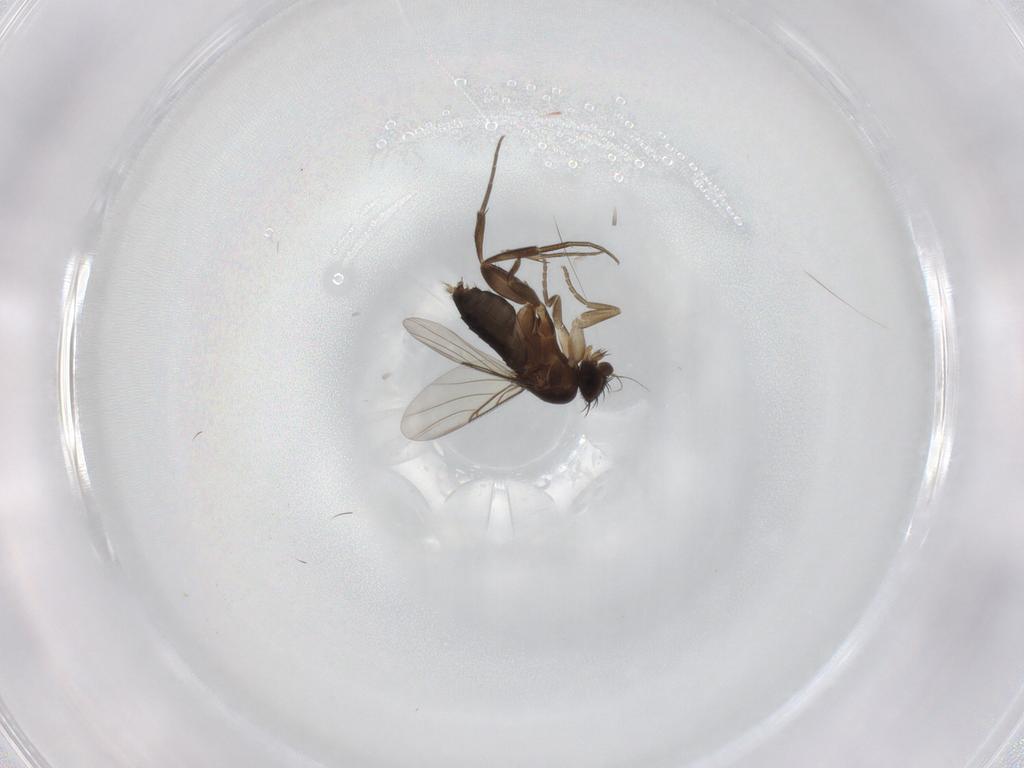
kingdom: Animalia
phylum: Arthropoda
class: Insecta
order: Diptera
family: Phoridae
